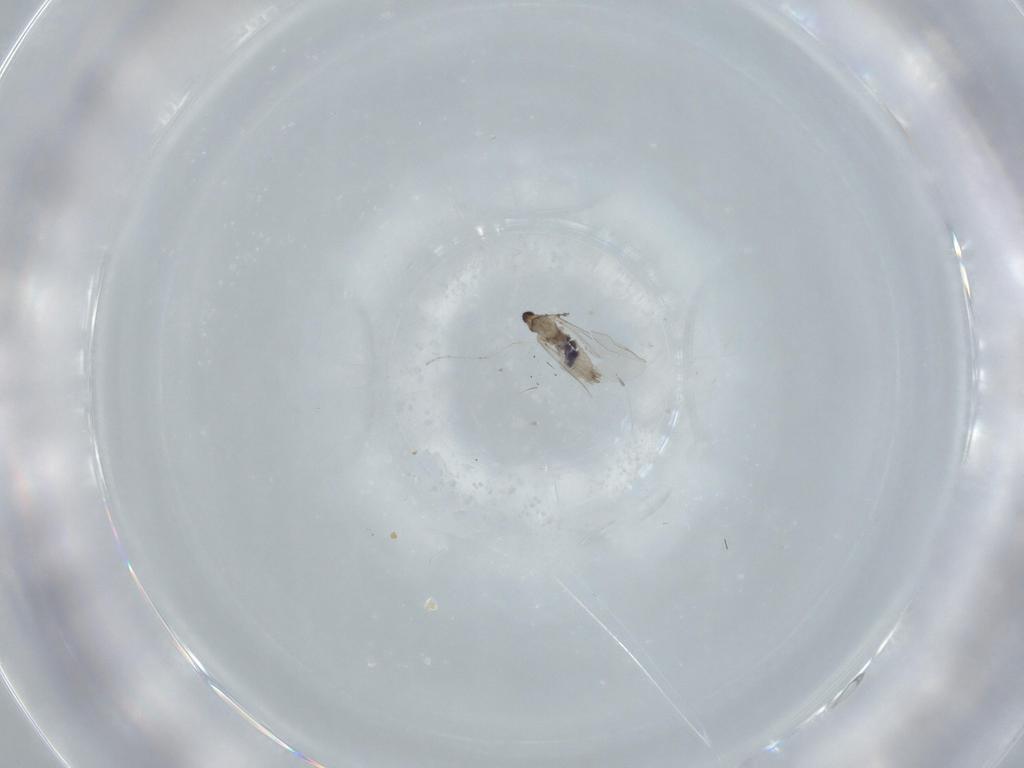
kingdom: Animalia
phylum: Arthropoda
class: Insecta
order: Diptera
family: Cecidomyiidae
